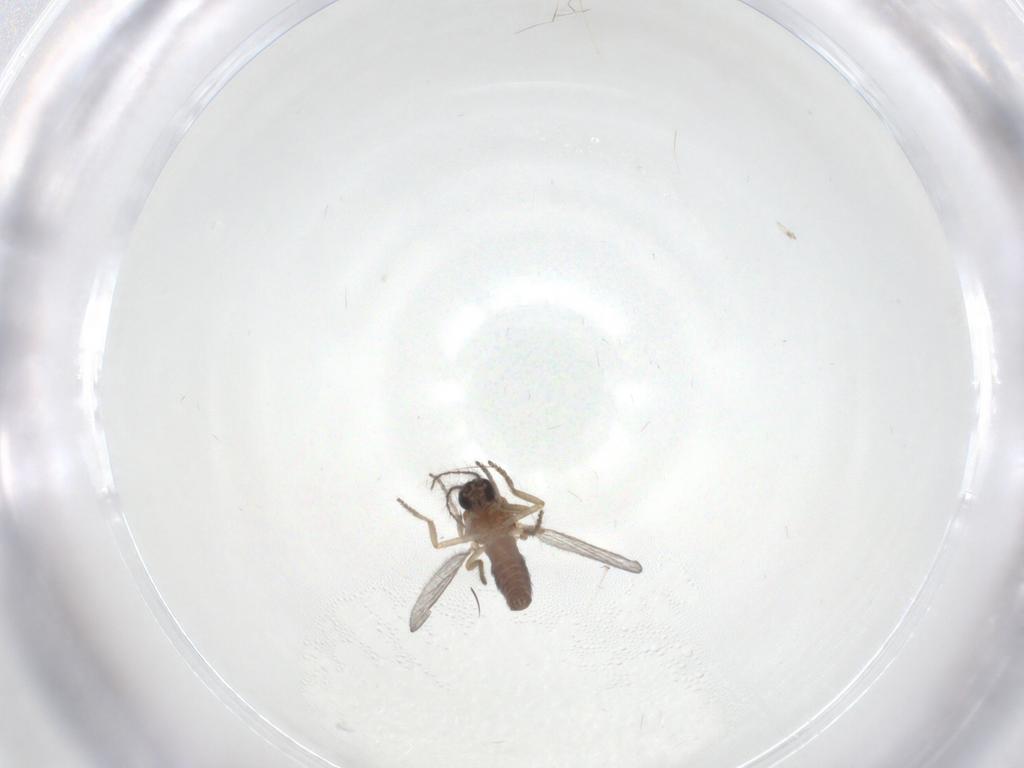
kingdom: Animalia
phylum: Arthropoda
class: Insecta
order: Diptera
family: Ceratopogonidae
